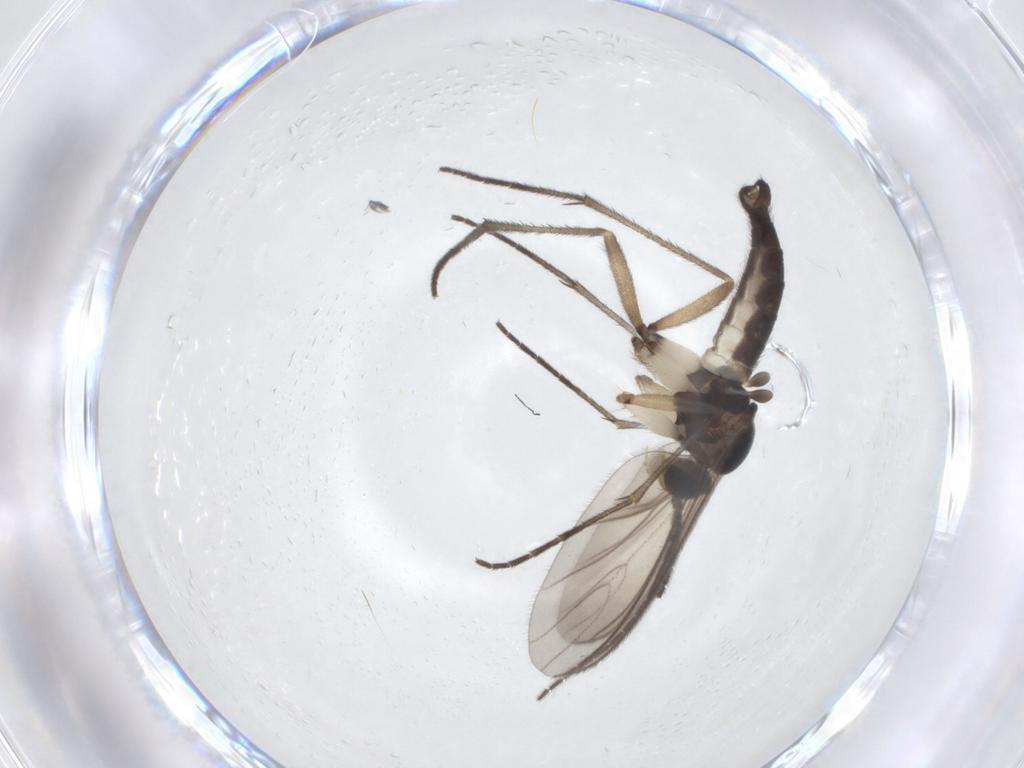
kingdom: Animalia
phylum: Arthropoda
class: Insecta
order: Diptera
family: Sciaridae
